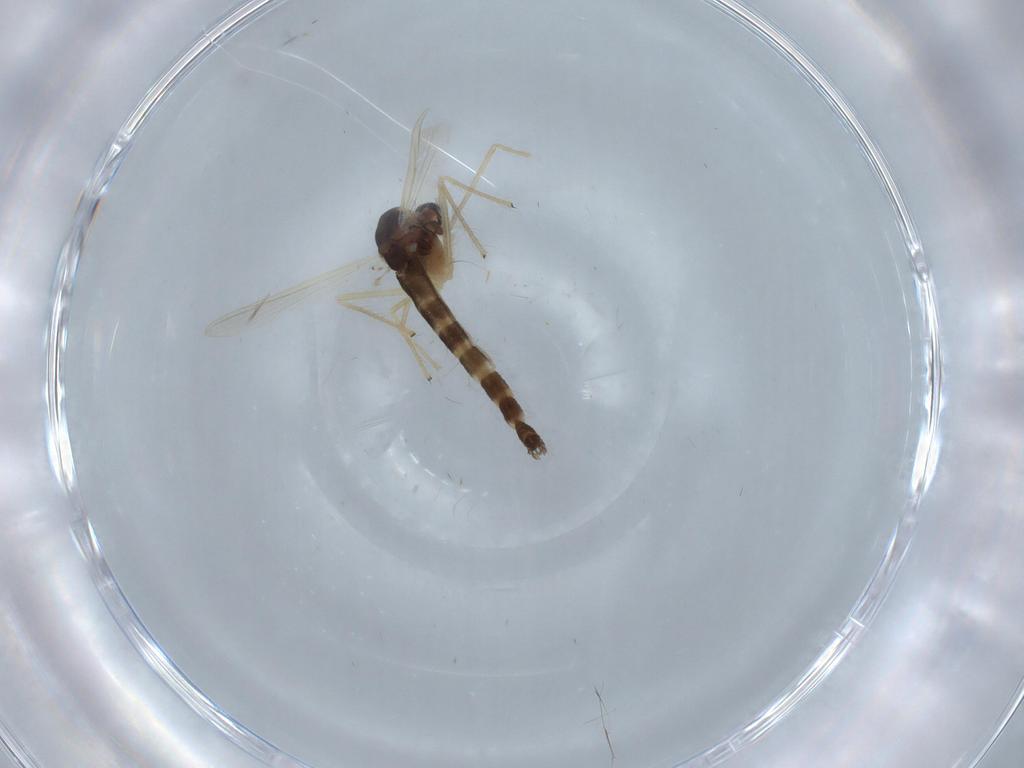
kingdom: Animalia
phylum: Arthropoda
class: Insecta
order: Diptera
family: Chironomidae
